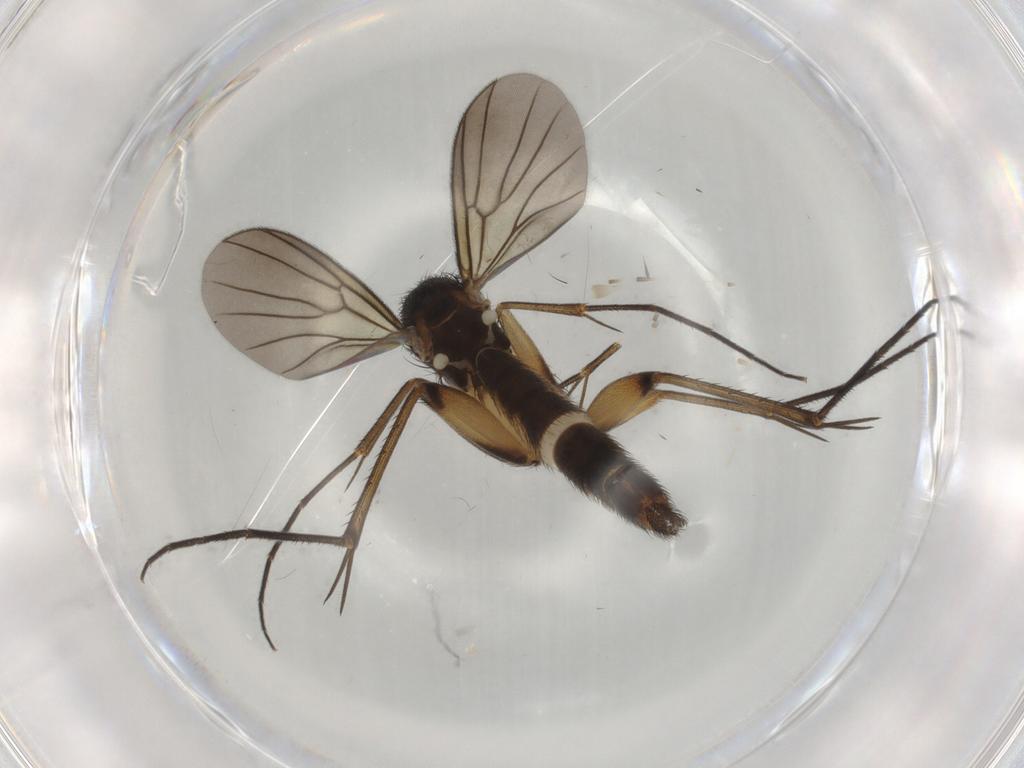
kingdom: Animalia
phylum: Arthropoda
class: Insecta
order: Diptera
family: Mycetophilidae
